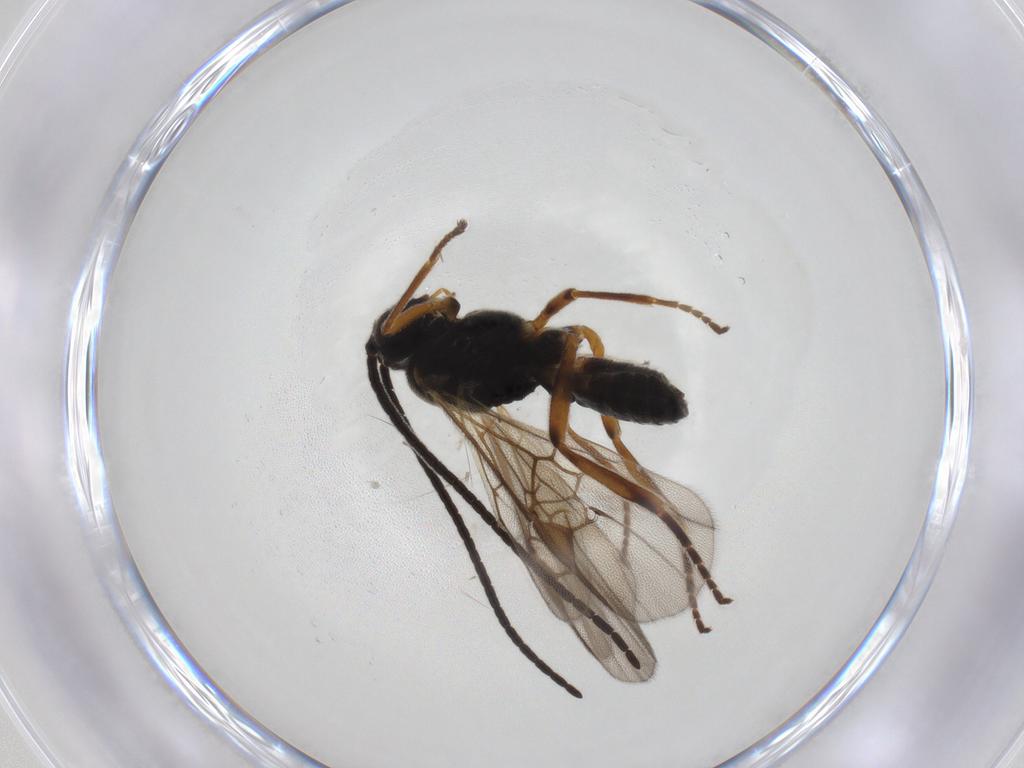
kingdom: Animalia
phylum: Arthropoda
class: Insecta
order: Hymenoptera
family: Braconidae
